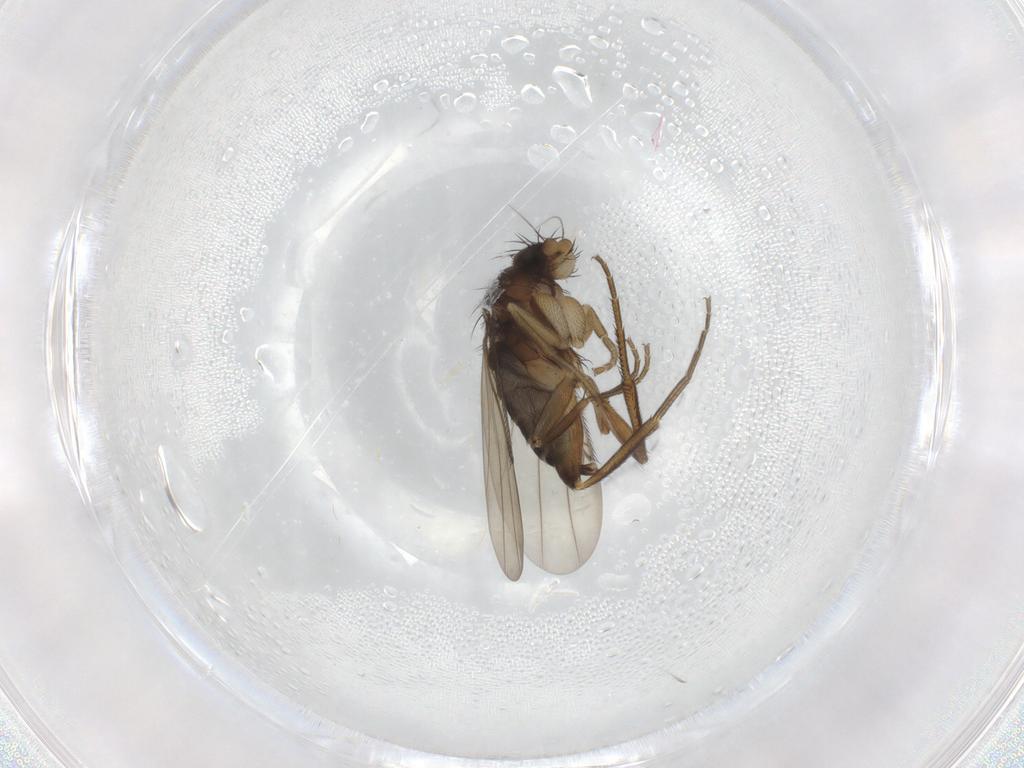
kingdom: Animalia
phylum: Arthropoda
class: Insecta
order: Diptera
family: Phoridae
